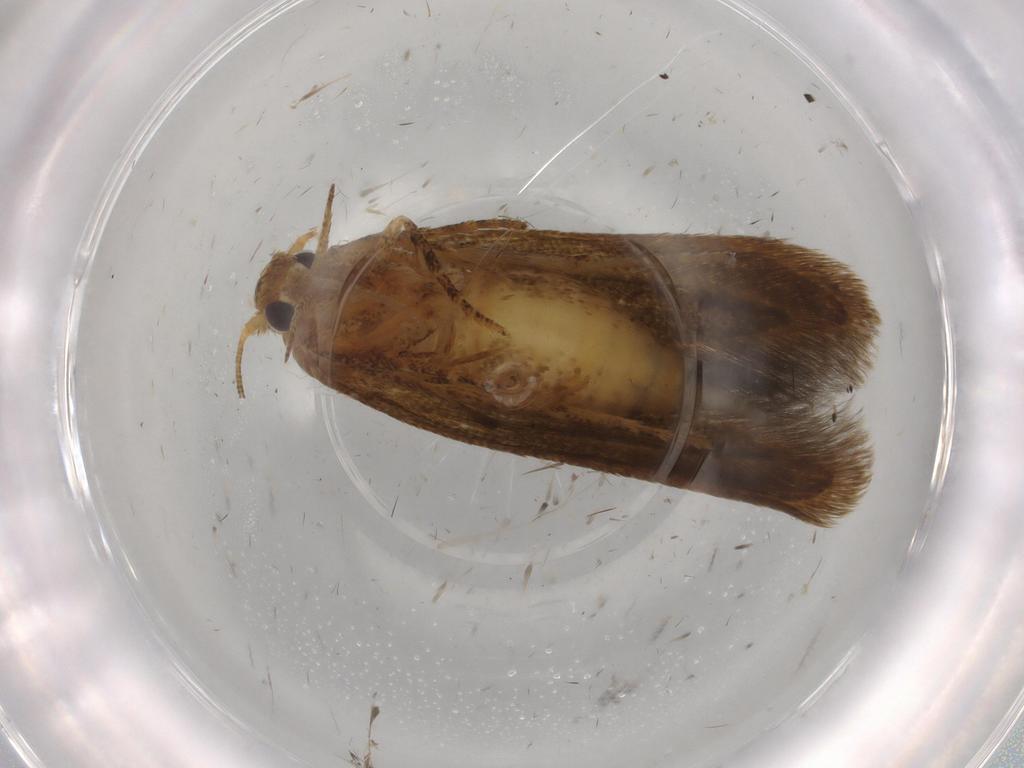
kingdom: Animalia
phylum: Arthropoda
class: Insecta
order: Lepidoptera
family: Blastobasidae
